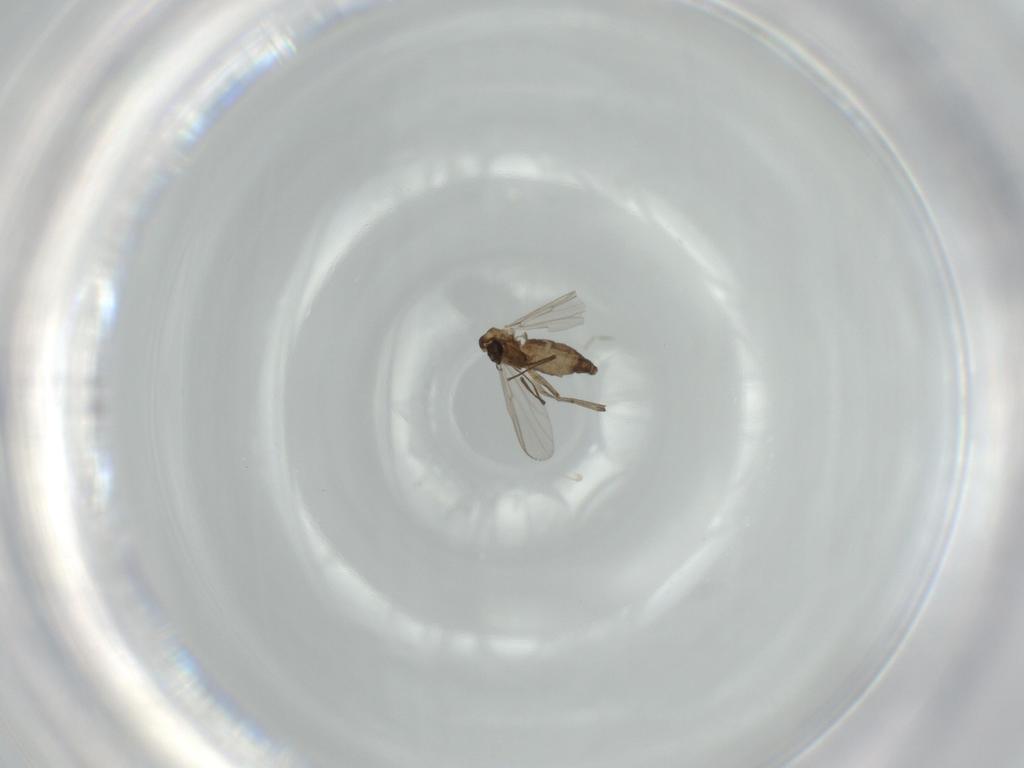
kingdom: Animalia
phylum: Arthropoda
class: Insecta
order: Diptera
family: Chironomidae
